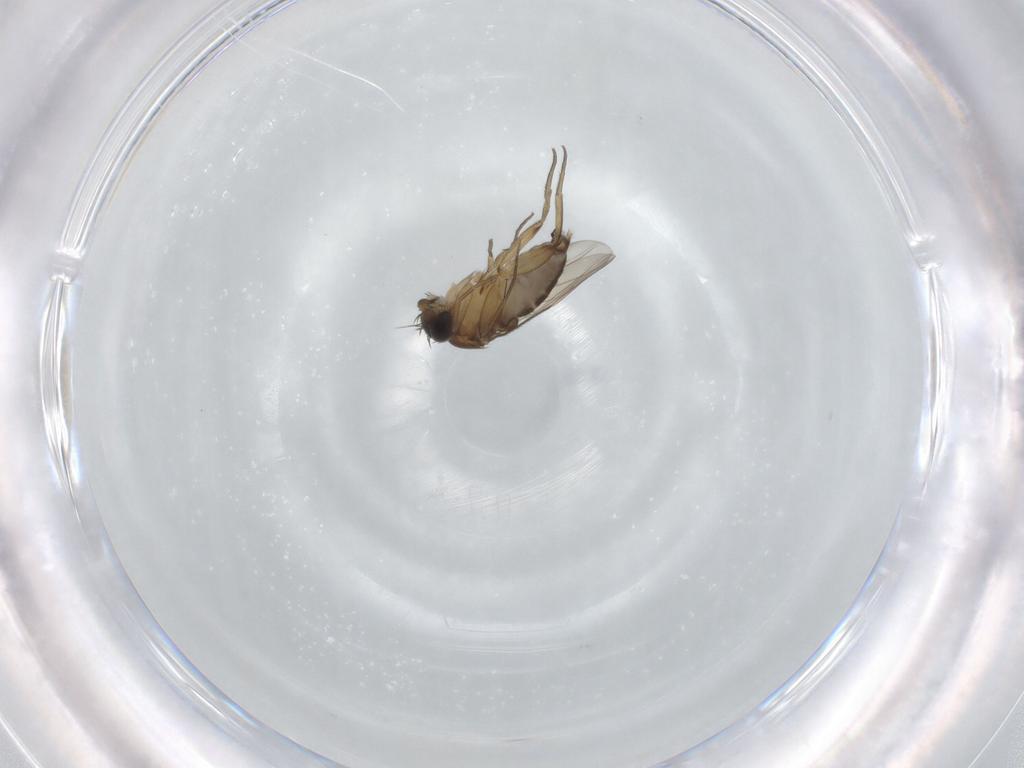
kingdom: Animalia
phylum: Arthropoda
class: Insecta
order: Diptera
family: Phoridae
